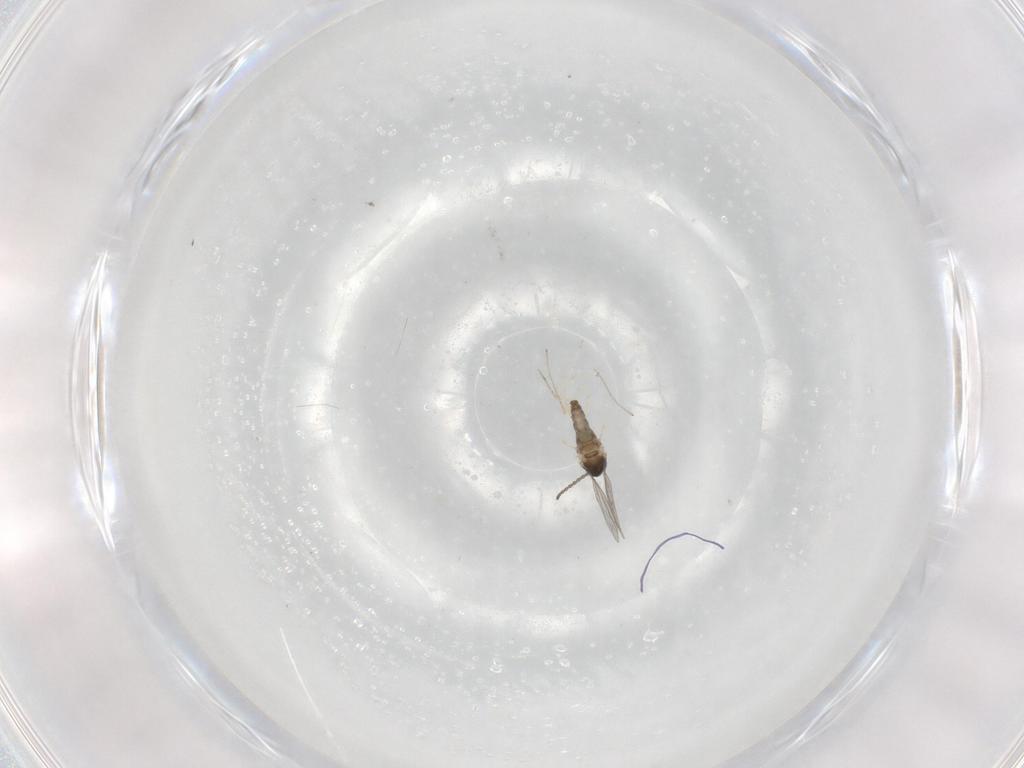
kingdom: Animalia
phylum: Arthropoda
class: Insecta
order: Diptera
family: Cecidomyiidae
